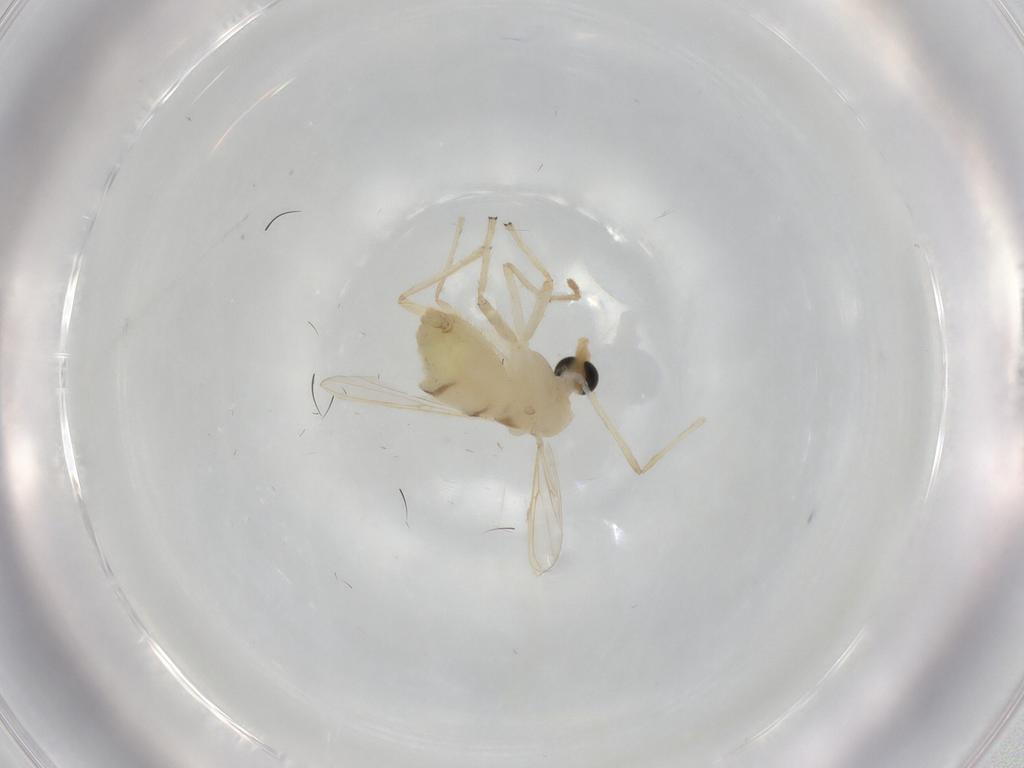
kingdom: Animalia
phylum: Arthropoda
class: Insecta
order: Diptera
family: Chironomidae
